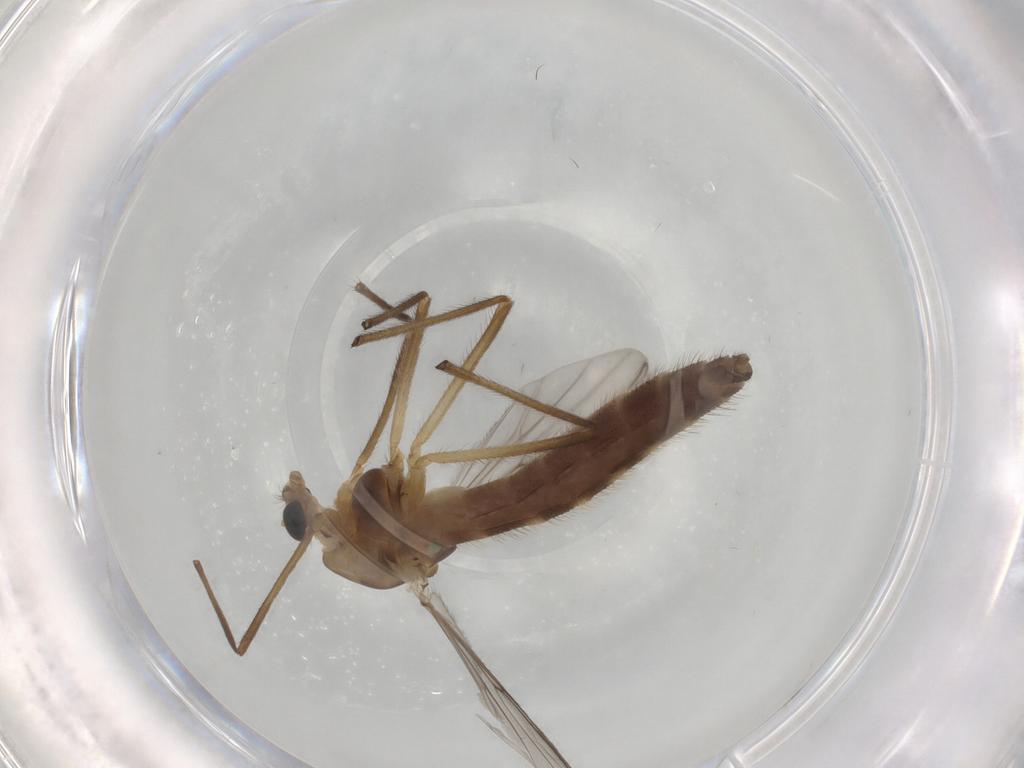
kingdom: Animalia
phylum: Arthropoda
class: Insecta
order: Diptera
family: Chironomidae
